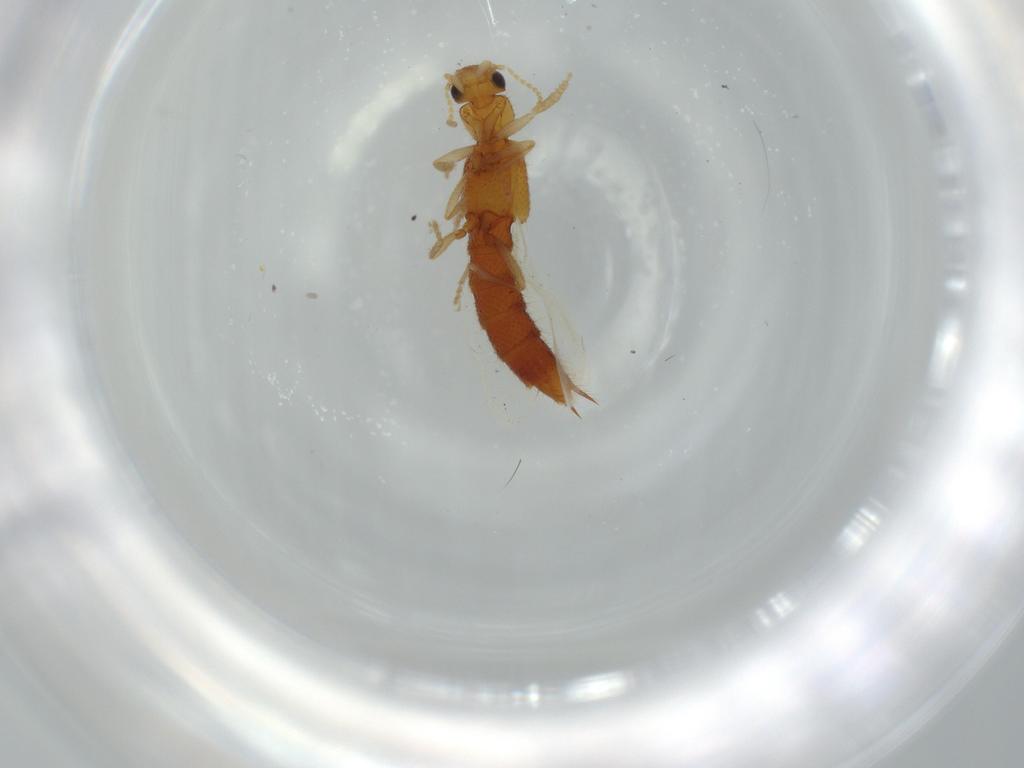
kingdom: Animalia
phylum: Arthropoda
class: Insecta
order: Coleoptera
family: Staphylinidae
